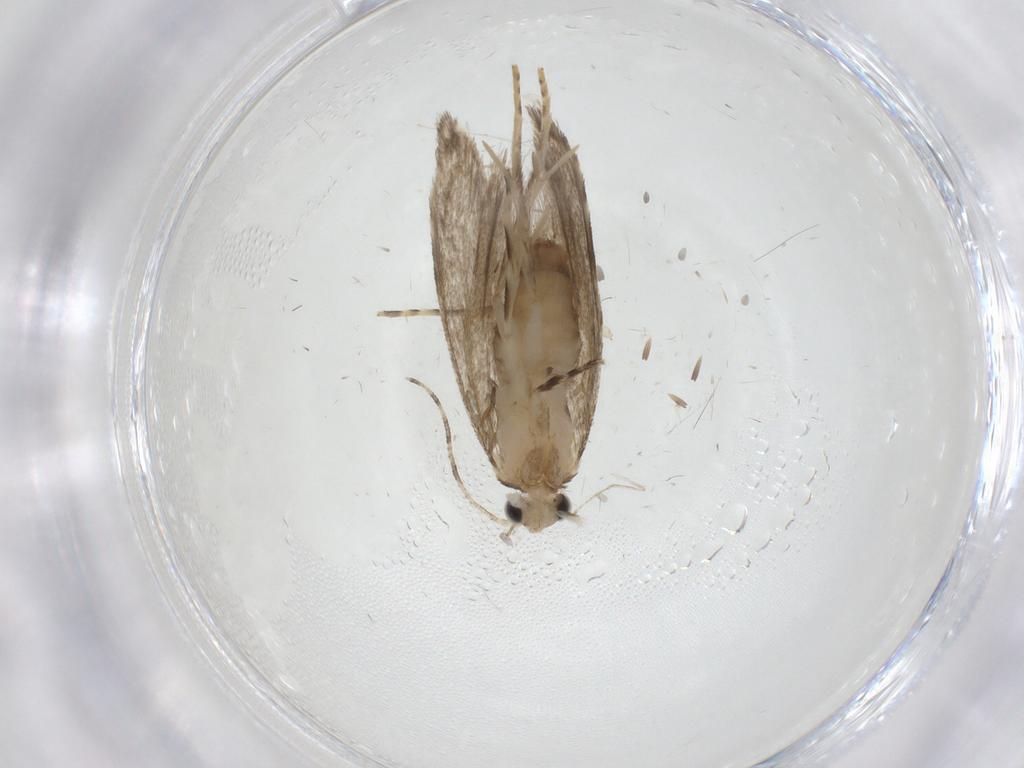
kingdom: Animalia
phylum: Arthropoda
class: Insecta
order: Lepidoptera
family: Tineidae
